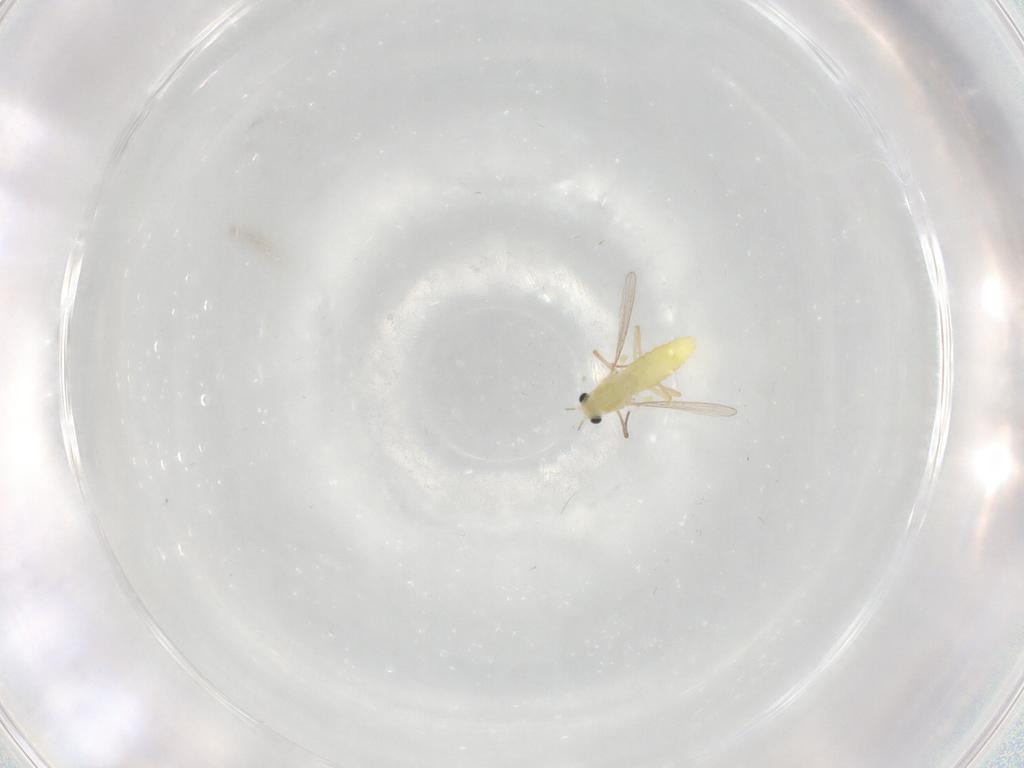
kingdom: Animalia
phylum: Arthropoda
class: Insecta
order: Diptera
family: Chironomidae
